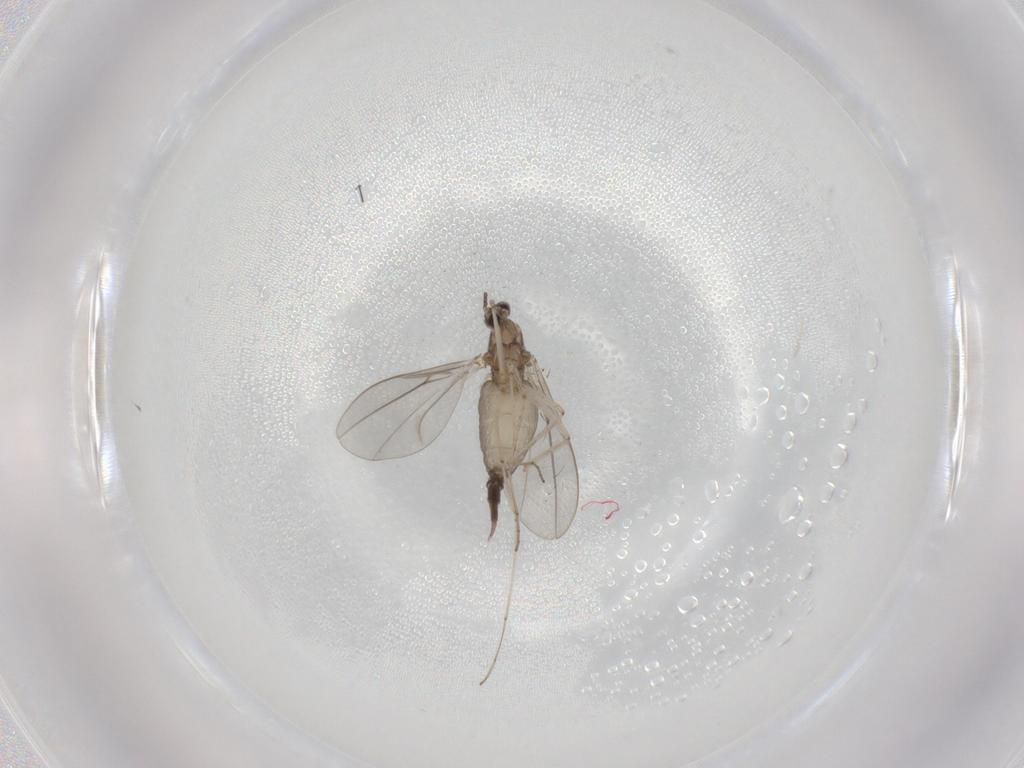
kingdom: Animalia
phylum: Arthropoda
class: Insecta
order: Diptera
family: Cecidomyiidae
